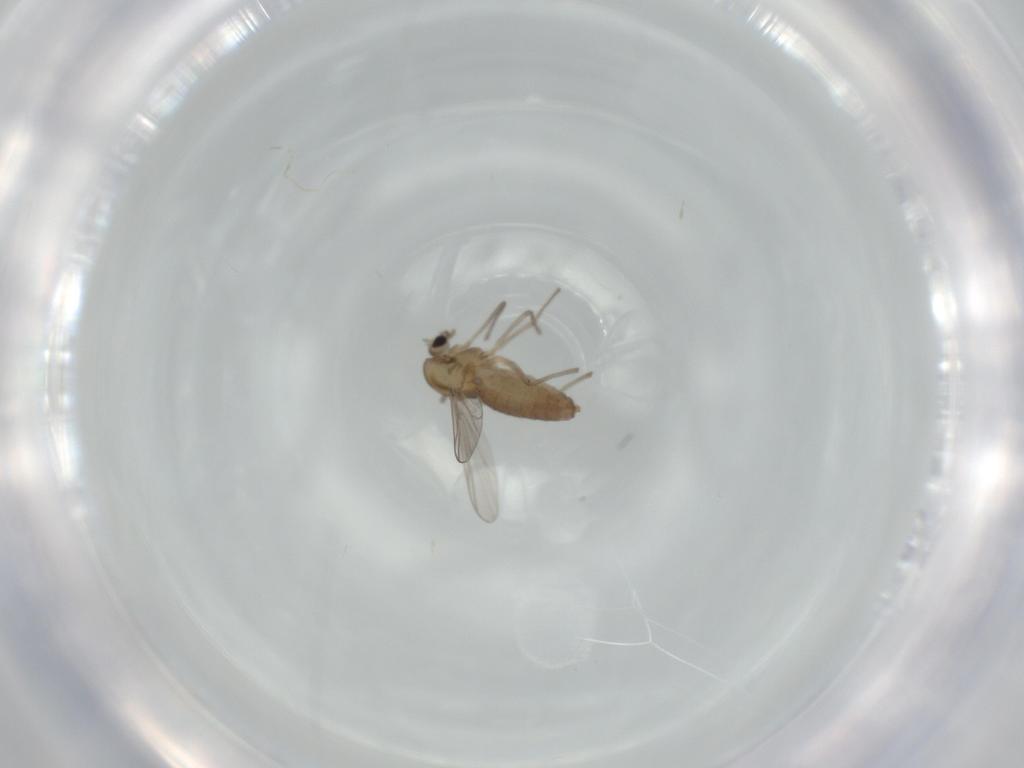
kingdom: Animalia
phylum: Arthropoda
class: Insecta
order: Diptera
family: Chironomidae
